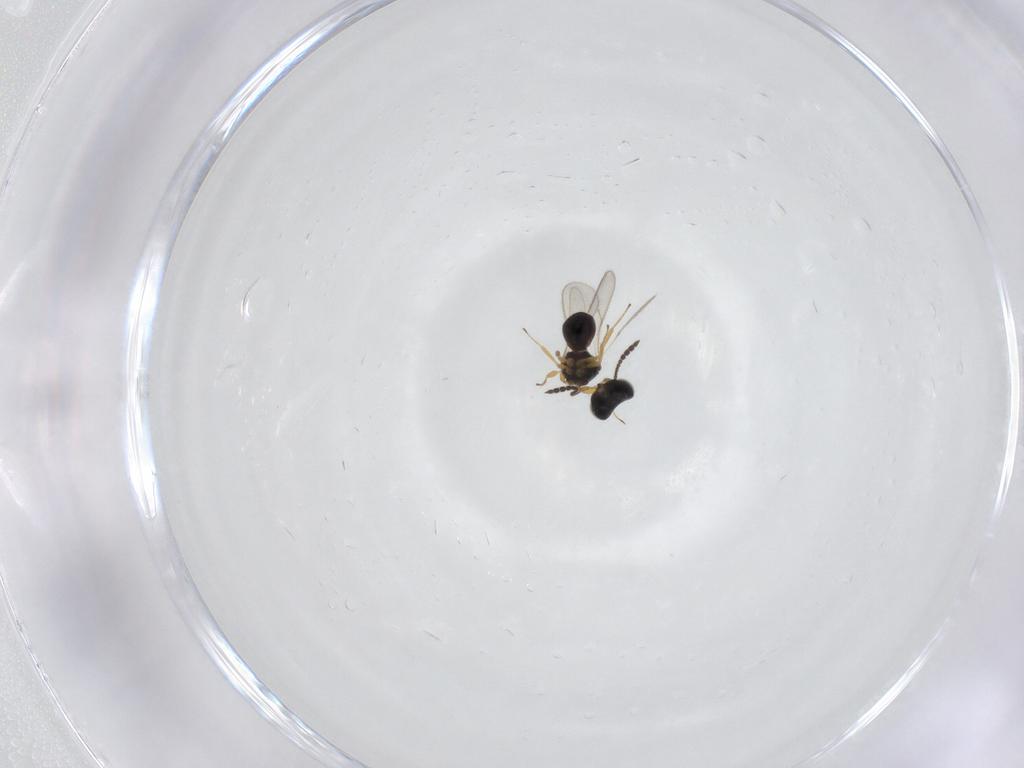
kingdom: Animalia
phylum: Arthropoda
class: Insecta
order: Hymenoptera
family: Scelionidae
